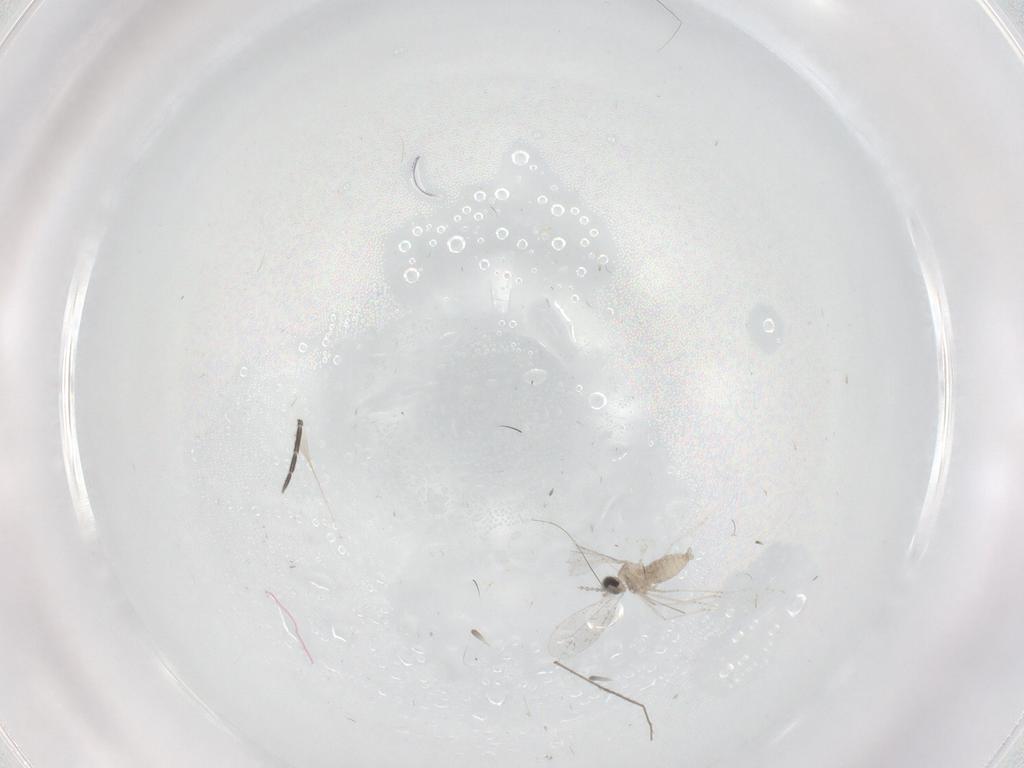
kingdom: Animalia
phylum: Arthropoda
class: Insecta
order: Diptera
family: Cecidomyiidae
